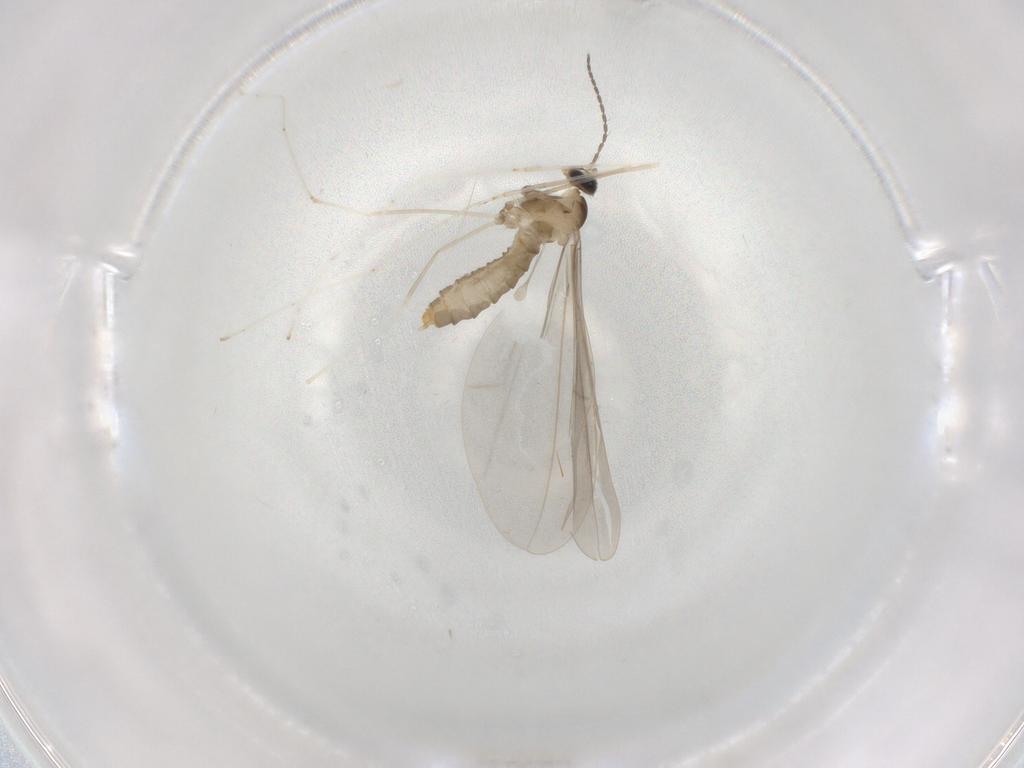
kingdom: Animalia
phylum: Arthropoda
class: Insecta
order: Diptera
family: Cecidomyiidae
